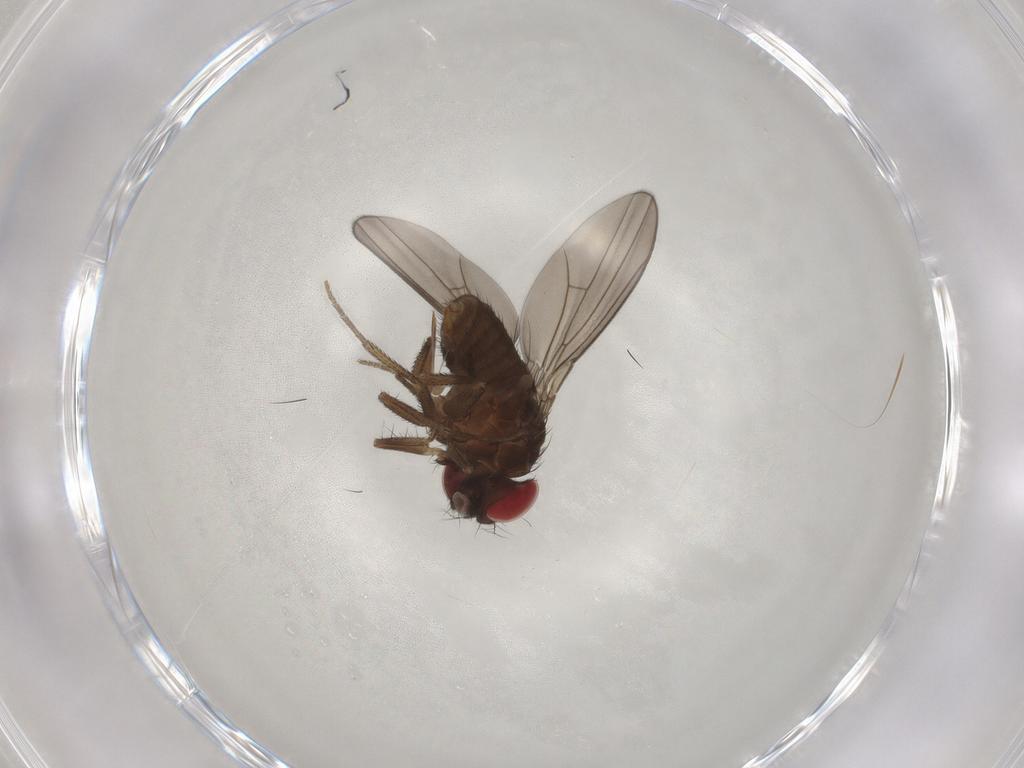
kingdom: Animalia
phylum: Arthropoda
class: Insecta
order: Diptera
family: Drosophilidae
